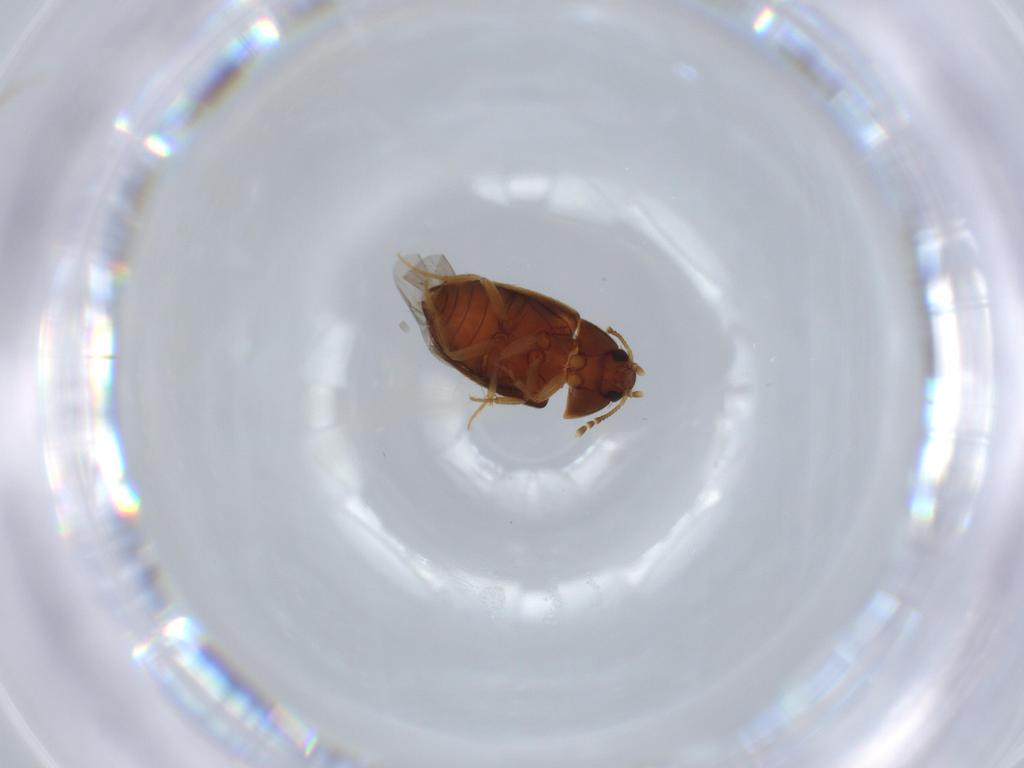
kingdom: Animalia
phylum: Arthropoda
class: Insecta
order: Coleoptera
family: Mycetophagidae
